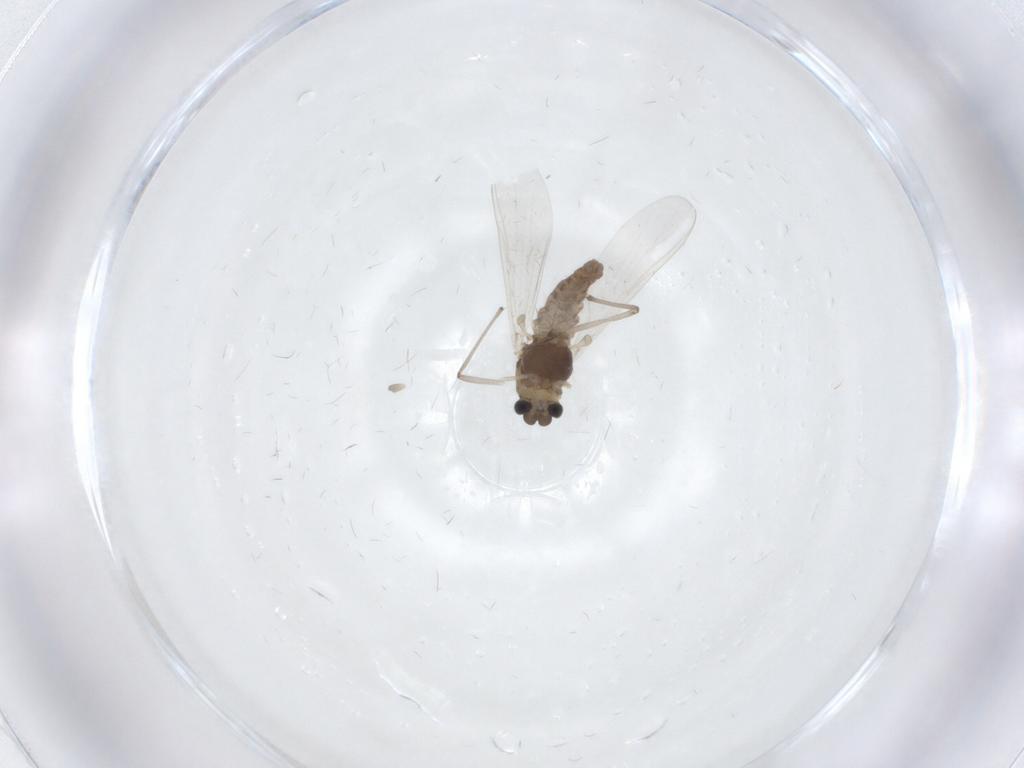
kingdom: Animalia
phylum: Arthropoda
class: Insecta
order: Diptera
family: Chironomidae
